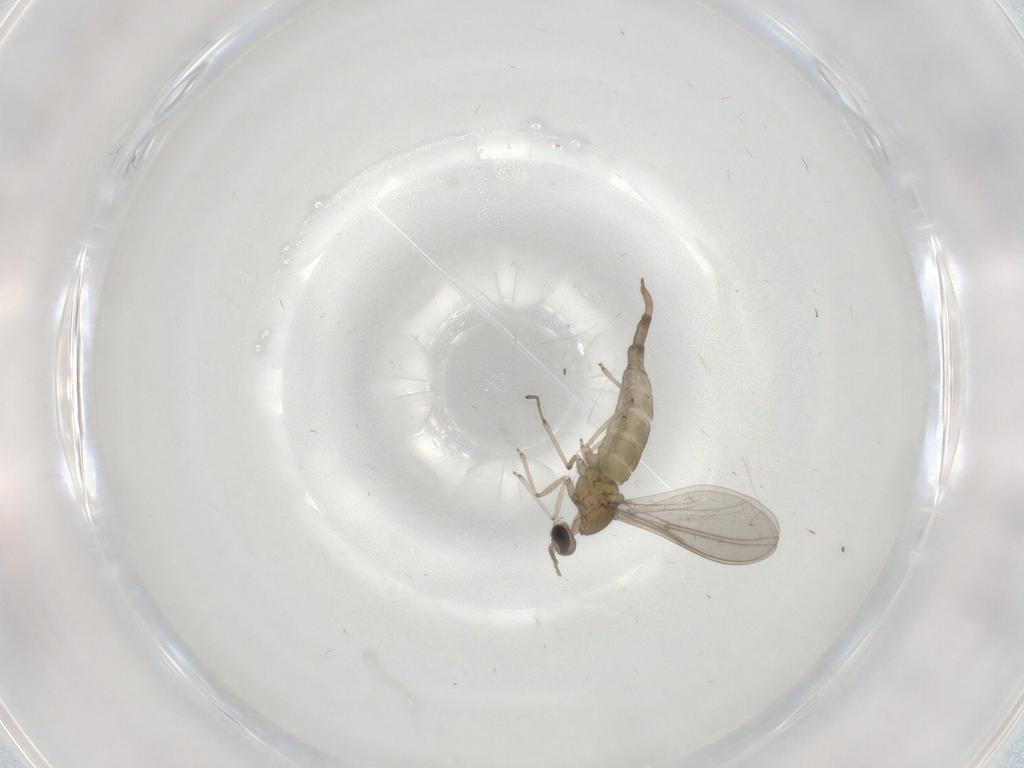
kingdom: Animalia
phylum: Arthropoda
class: Insecta
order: Diptera
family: Cecidomyiidae
